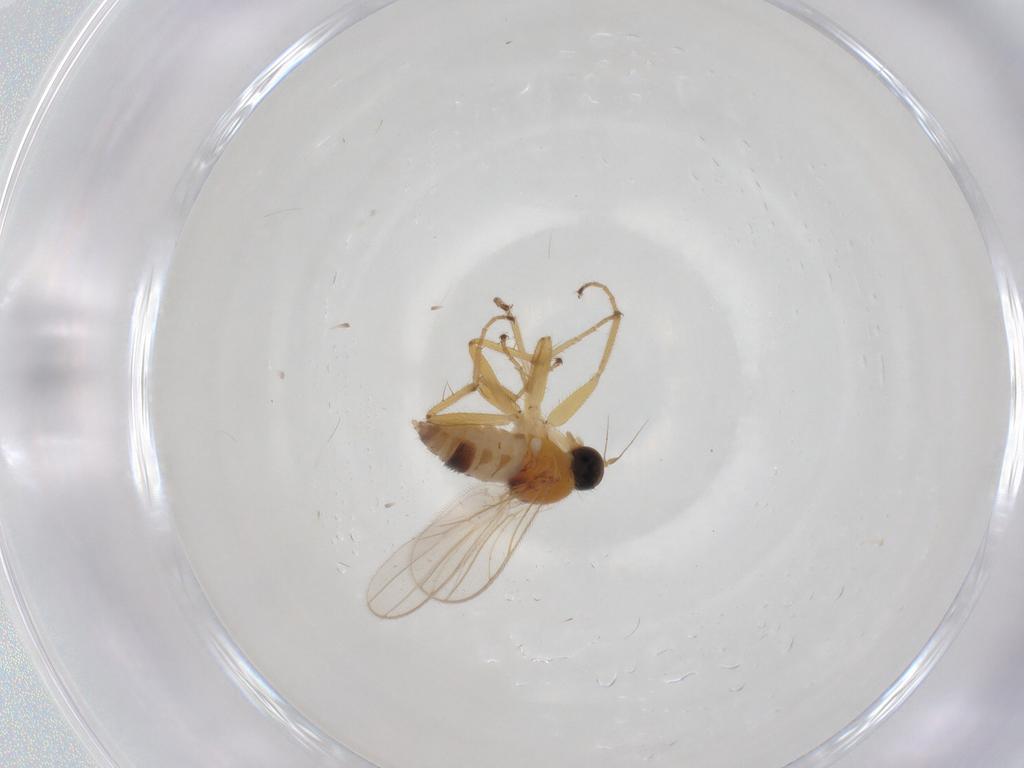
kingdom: Animalia
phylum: Arthropoda
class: Insecta
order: Diptera
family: Hybotidae
